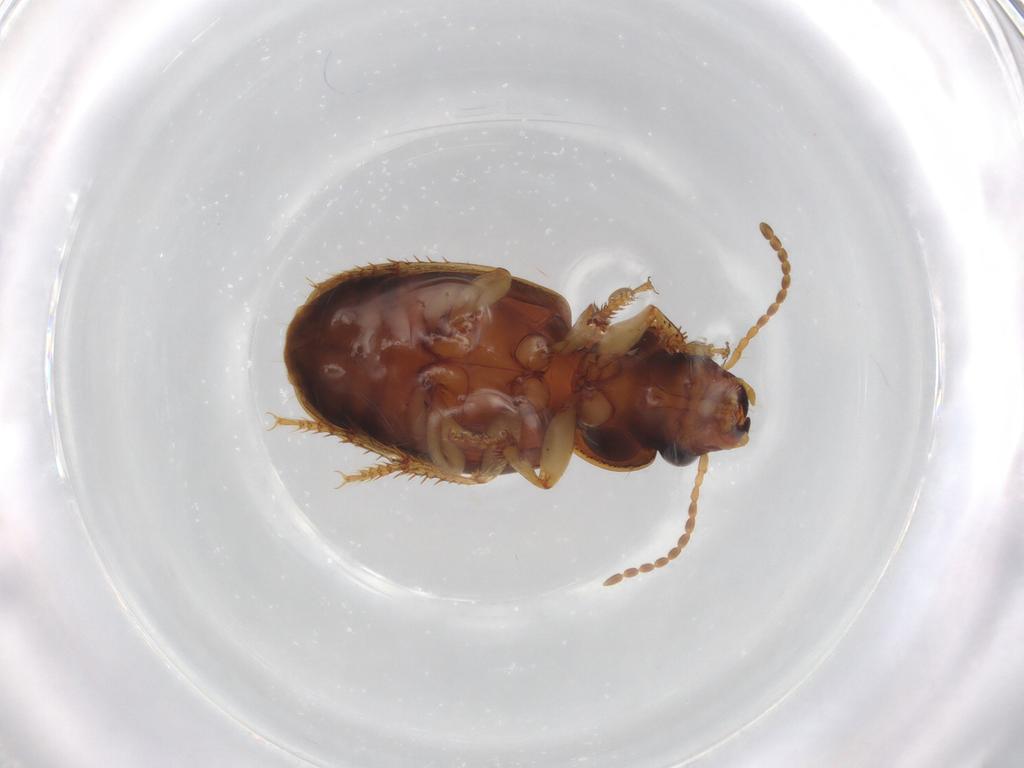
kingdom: Animalia
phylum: Arthropoda
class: Insecta
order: Coleoptera
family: Carabidae
